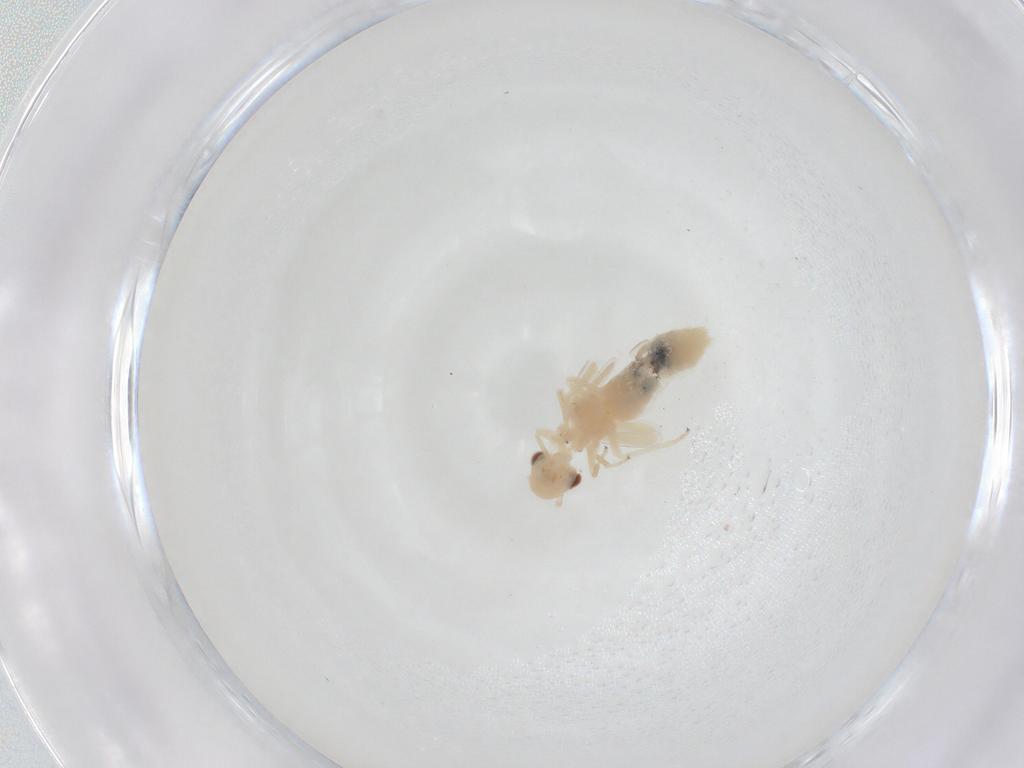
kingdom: Animalia
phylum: Arthropoda
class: Insecta
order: Psocodea
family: Caeciliusidae
